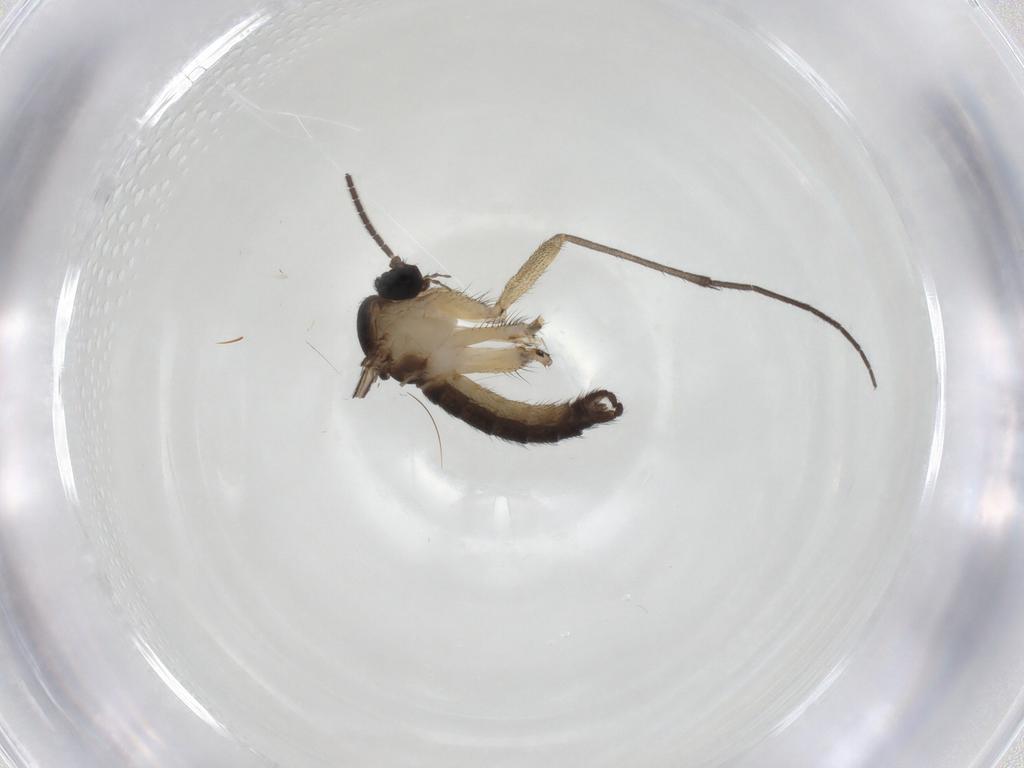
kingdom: Animalia
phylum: Arthropoda
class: Insecta
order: Diptera
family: Sciaridae
